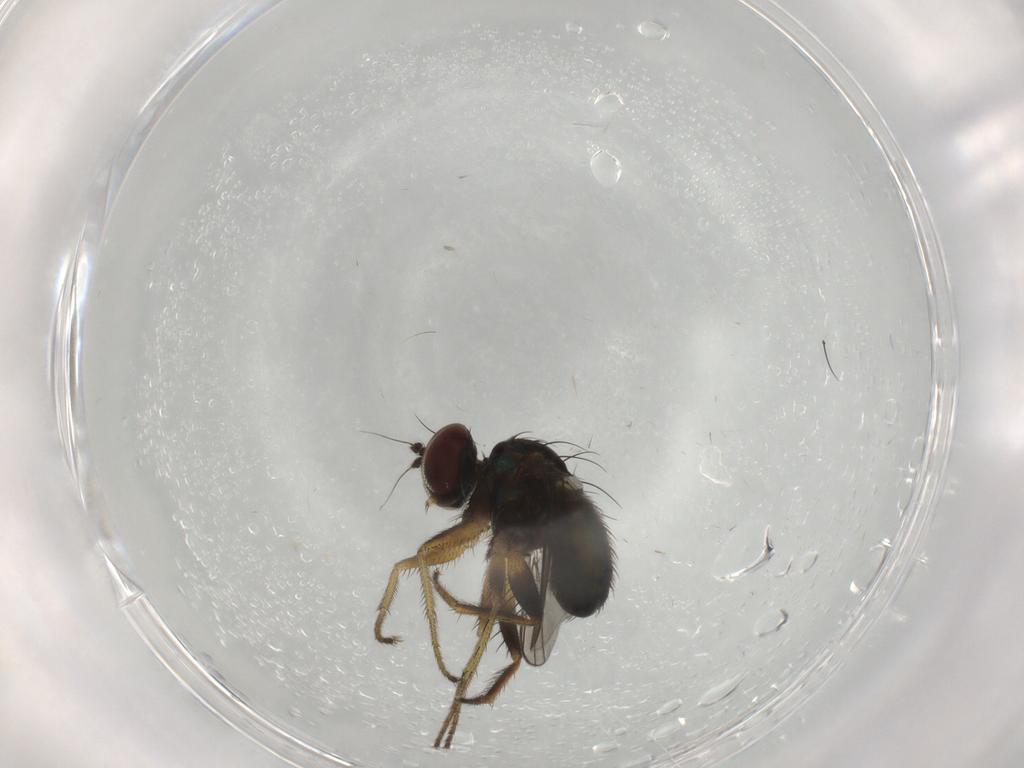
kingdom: Animalia
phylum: Arthropoda
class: Insecta
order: Diptera
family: Dolichopodidae
